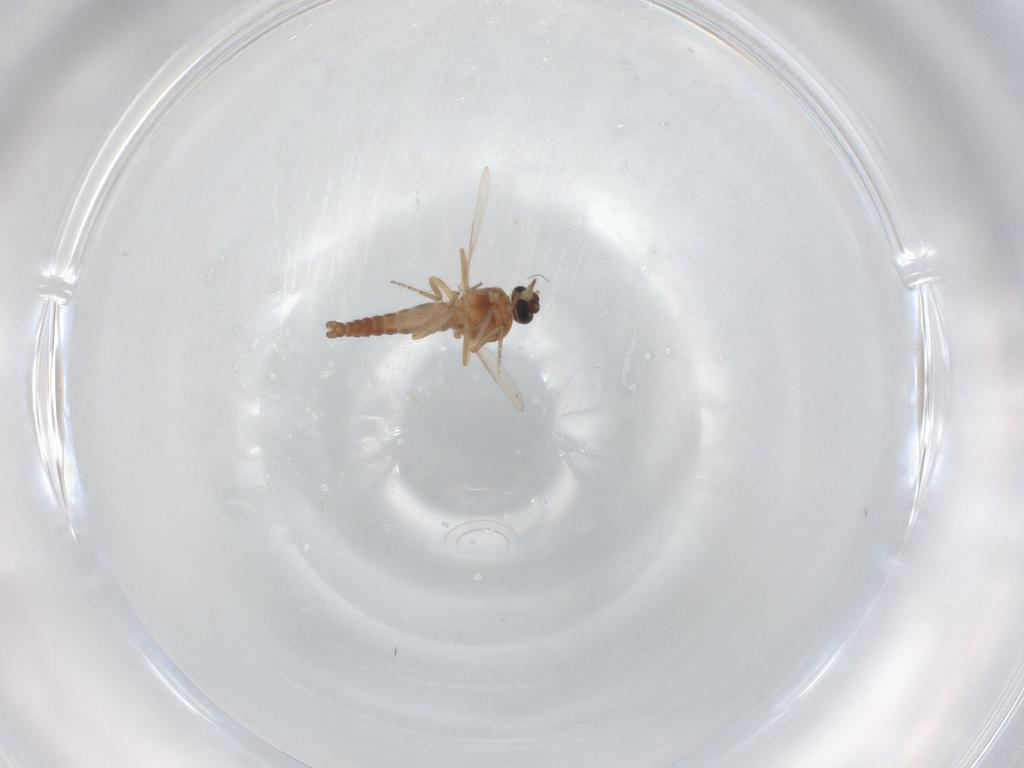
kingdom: Animalia
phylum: Arthropoda
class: Insecta
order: Diptera
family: Ceratopogonidae
